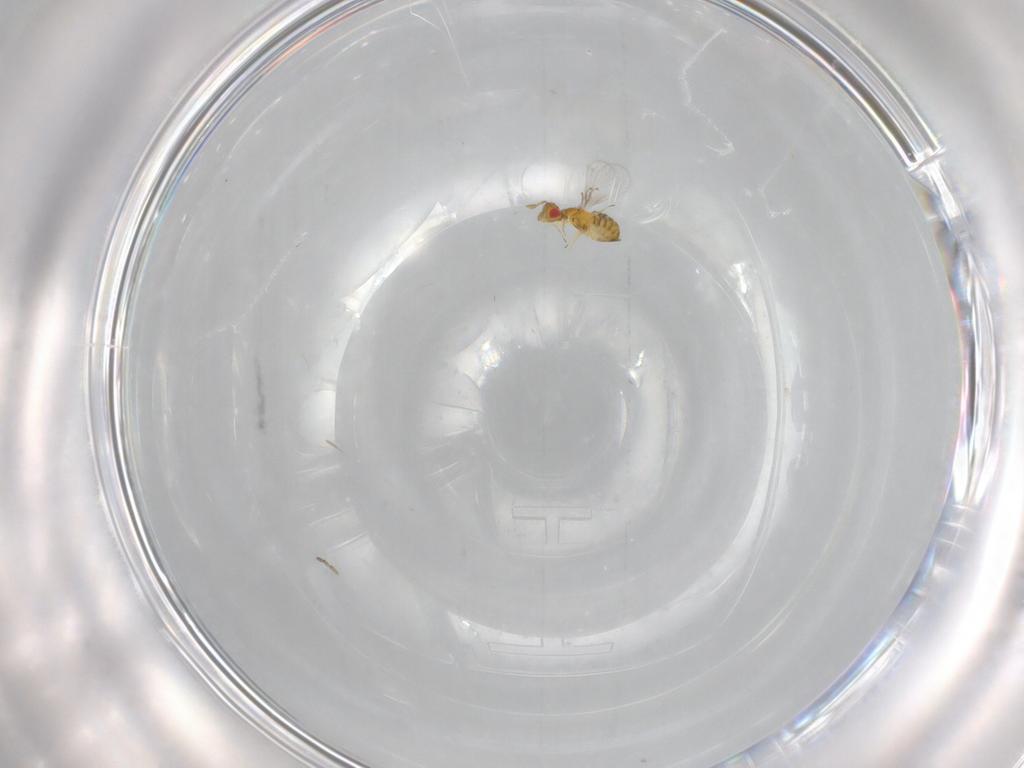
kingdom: Animalia
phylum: Arthropoda
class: Insecta
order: Hymenoptera
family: Trichogrammatidae
